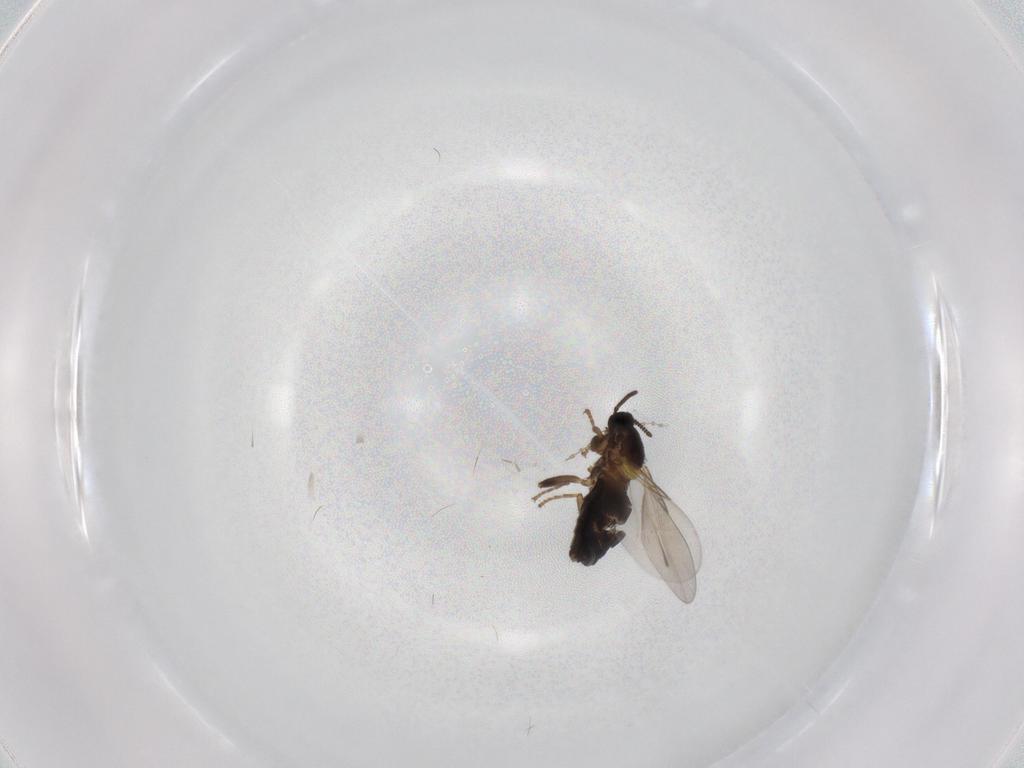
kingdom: Animalia
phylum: Arthropoda
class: Insecta
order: Diptera
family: Scatopsidae
